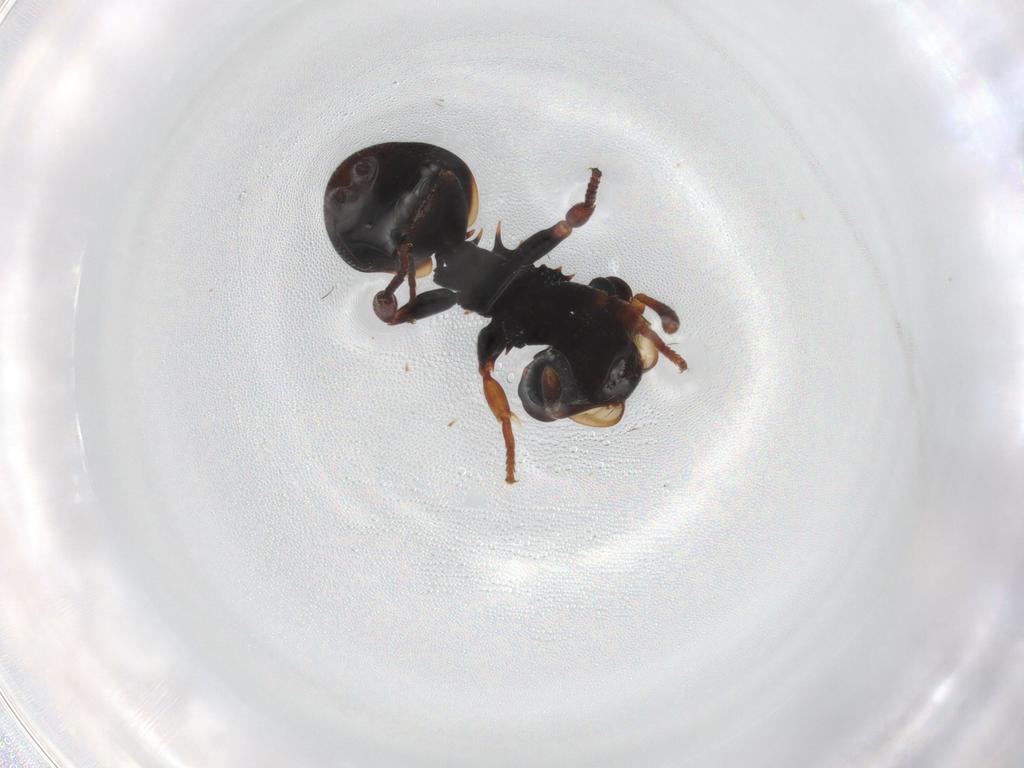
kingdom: Animalia
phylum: Arthropoda
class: Insecta
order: Hymenoptera
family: Formicidae
